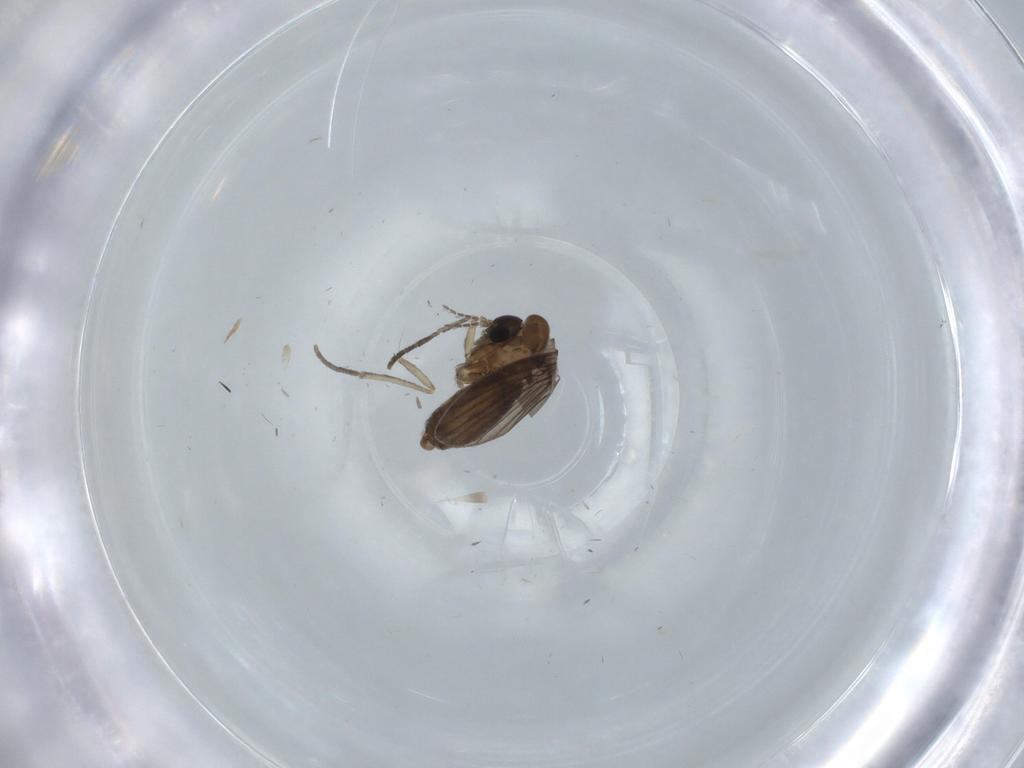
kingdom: Animalia
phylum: Arthropoda
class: Insecta
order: Diptera
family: Psychodidae
